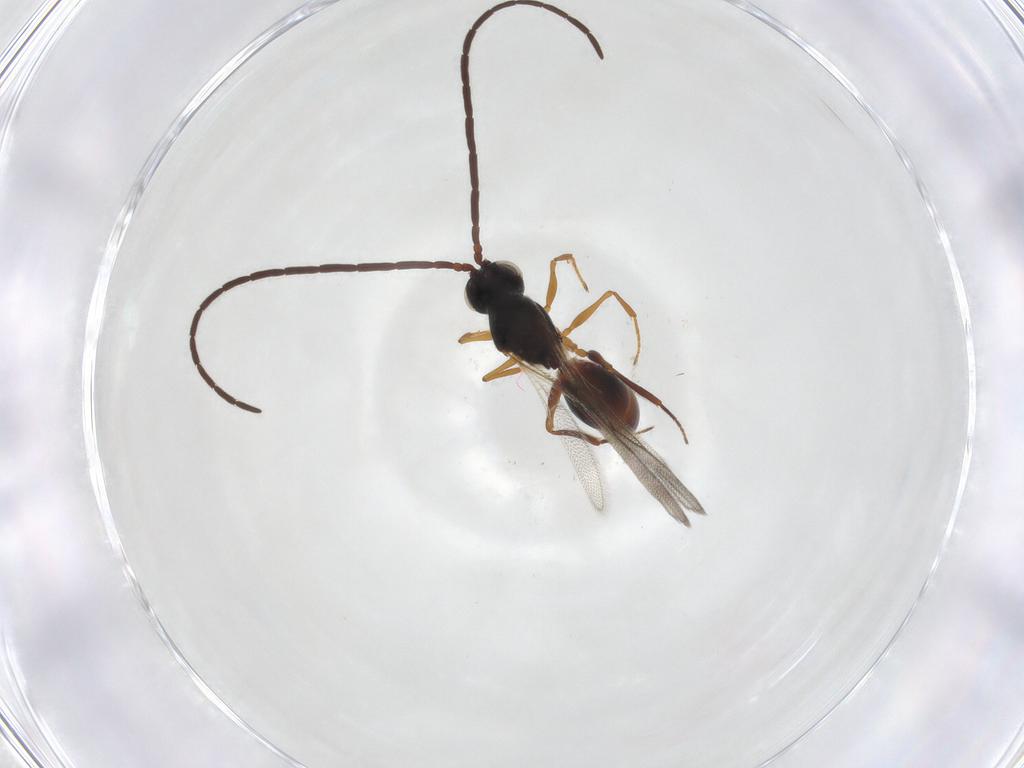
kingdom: Animalia
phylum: Arthropoda
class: Insecta
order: Hymenoptera
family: Figitidae
